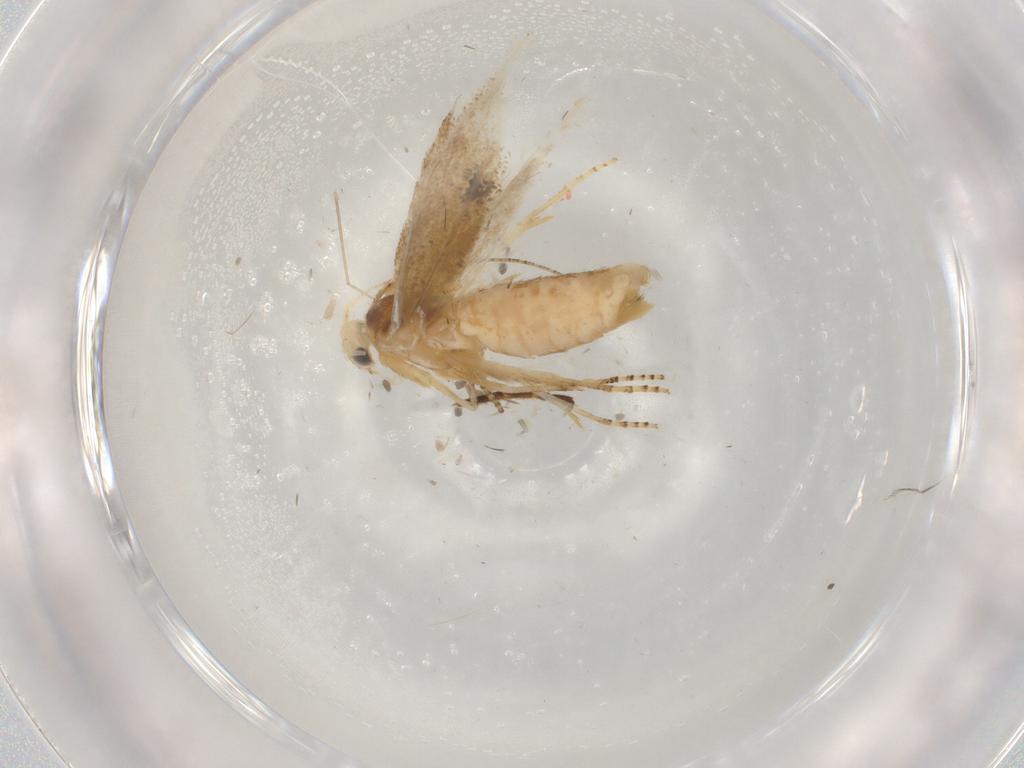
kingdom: Animalia
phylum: Arthropoda
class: Insecta
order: Lepidoptera
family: Bucculatricidae
